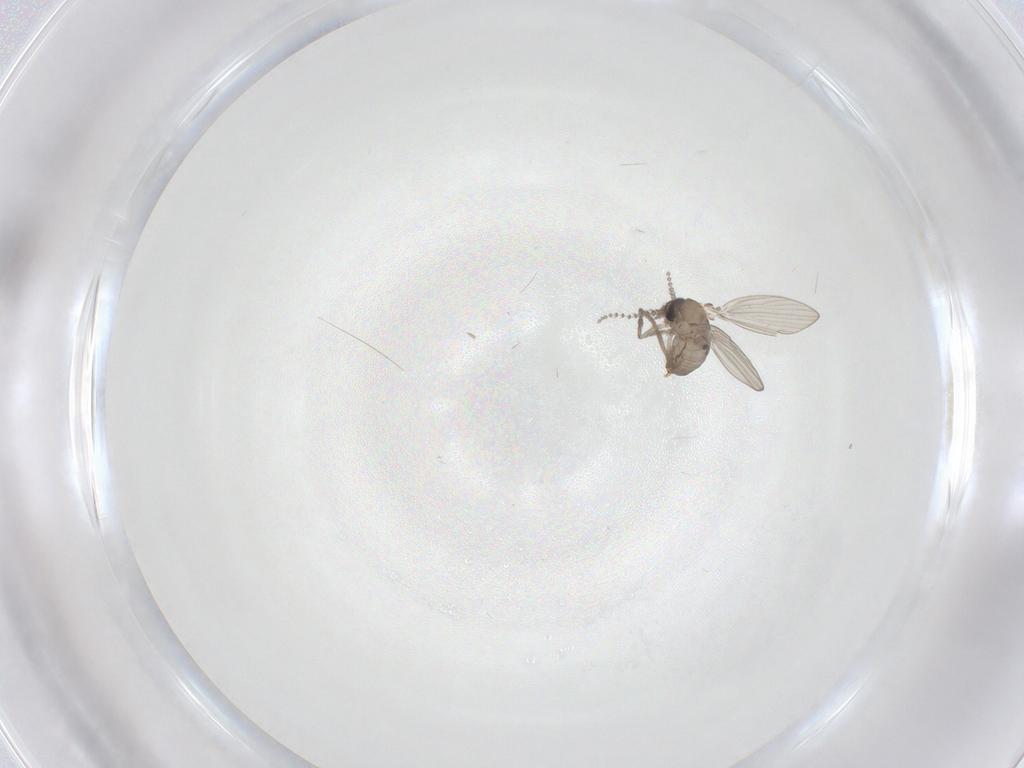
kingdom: Animalia
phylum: Arthropoda
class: Insecta
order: Diptera
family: Psychodidae
